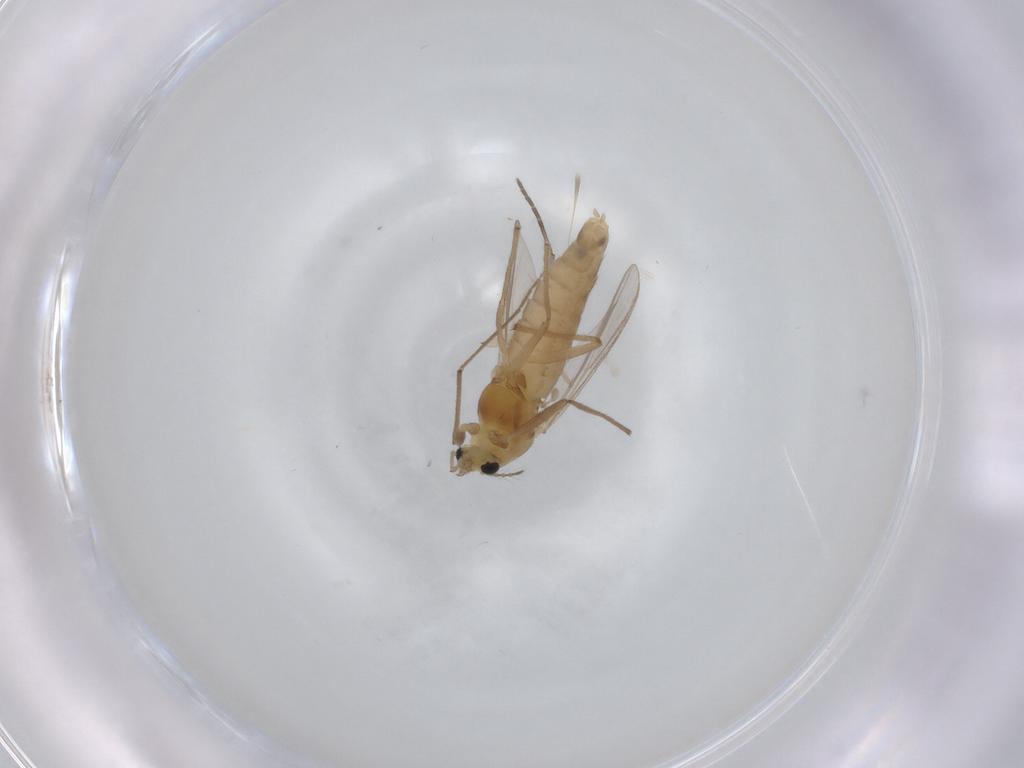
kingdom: Animalia
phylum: Arthropoda
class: Insecta
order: Diptera
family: Chironomidae
